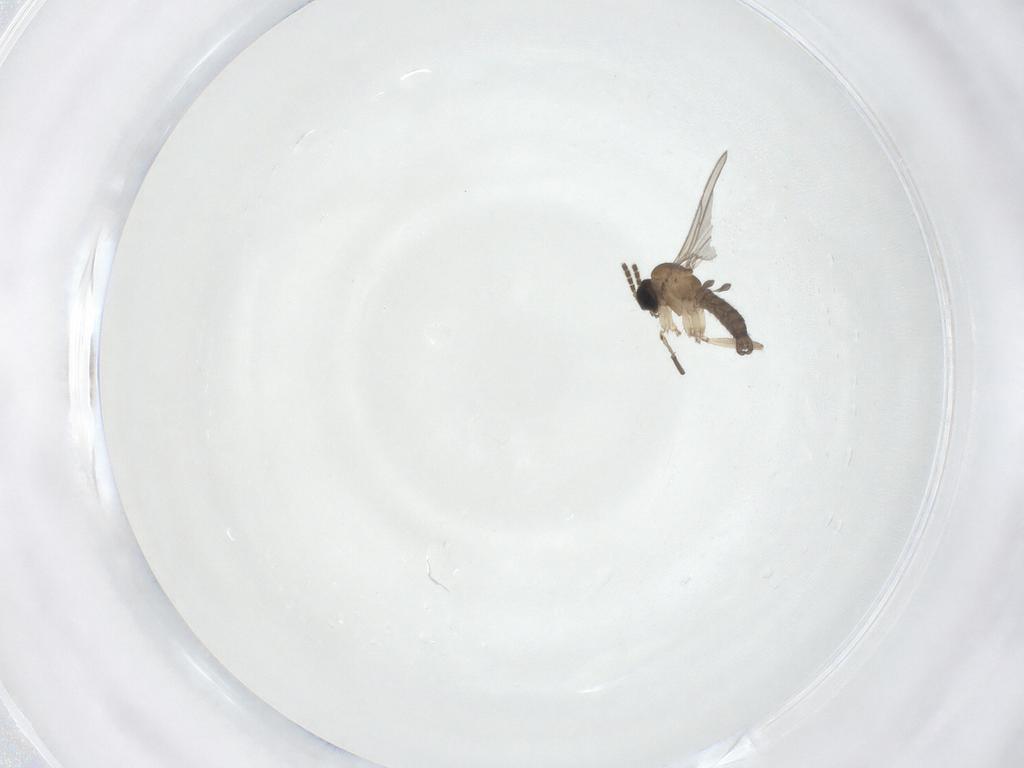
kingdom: Animalia
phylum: Arthropoda
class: Insecta
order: Diptera
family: Sciaridae
